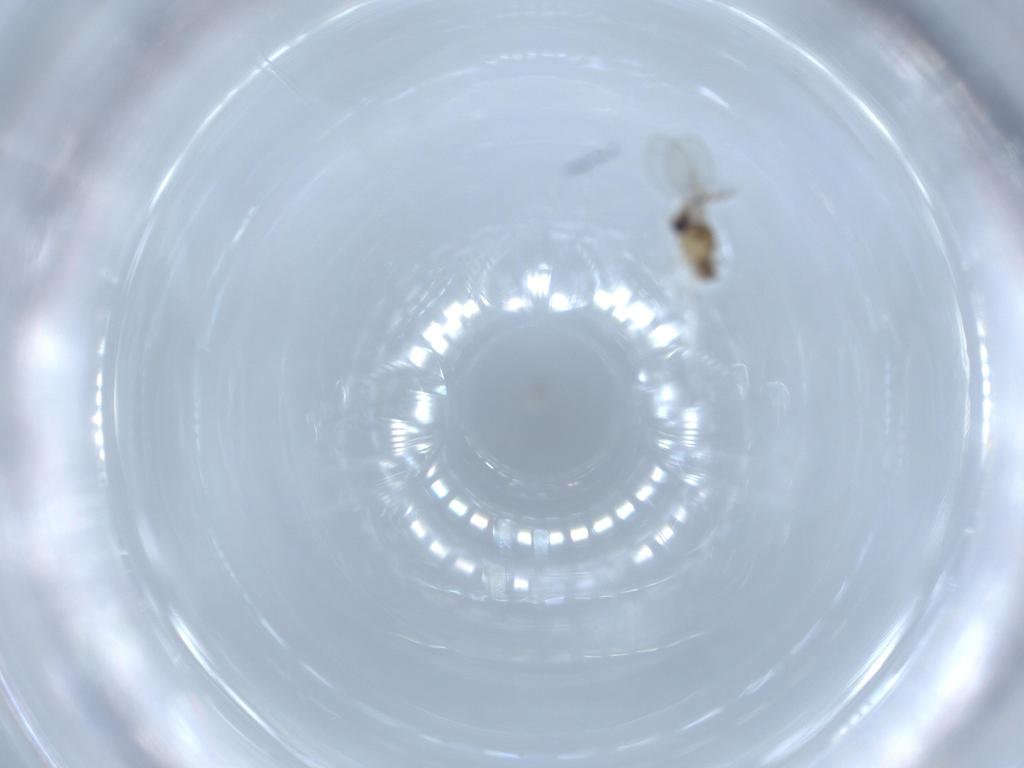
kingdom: Animalia
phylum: Arthropoda
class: Insecta
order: Diptera
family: Cecidomyiidae
